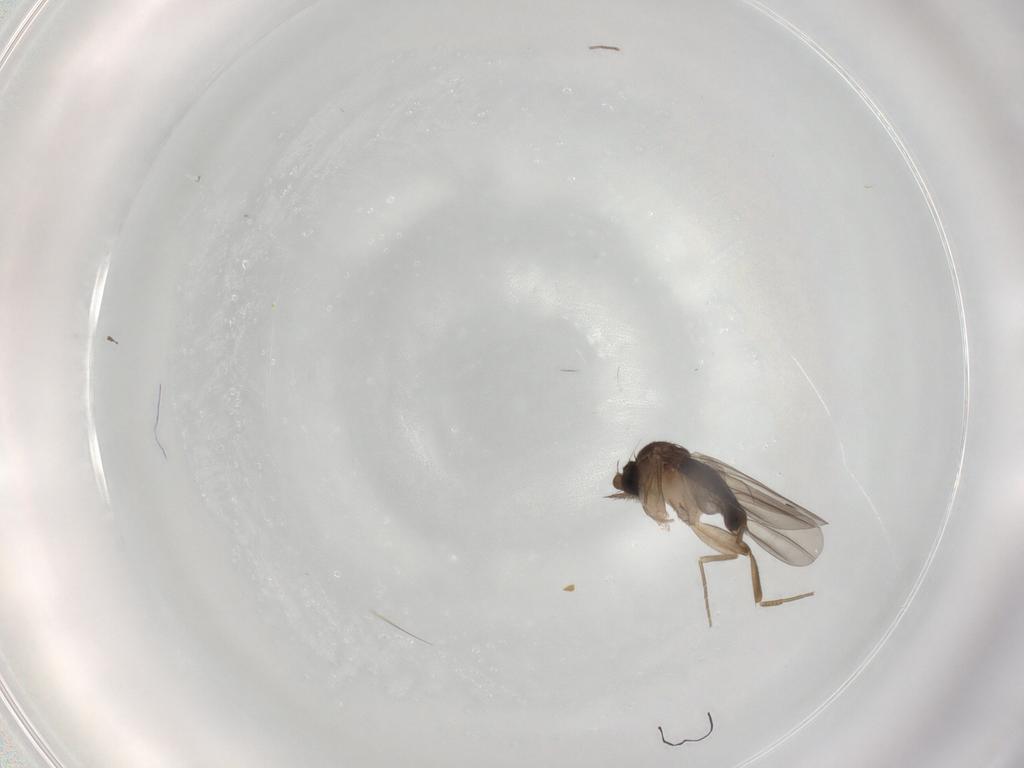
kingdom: Animalia
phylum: Arthropoda
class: Insecta
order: Diptera
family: Phoridae
